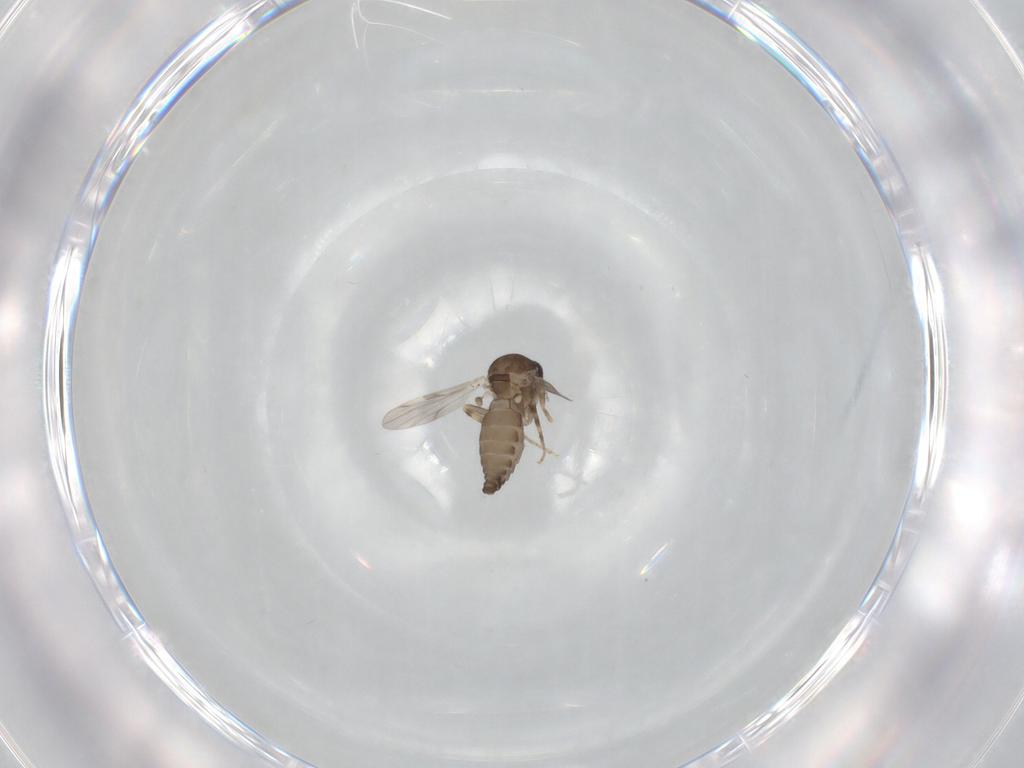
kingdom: Animalia
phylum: Arthropoda
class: Insecta
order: Diptera
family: Ceratopogonidae
